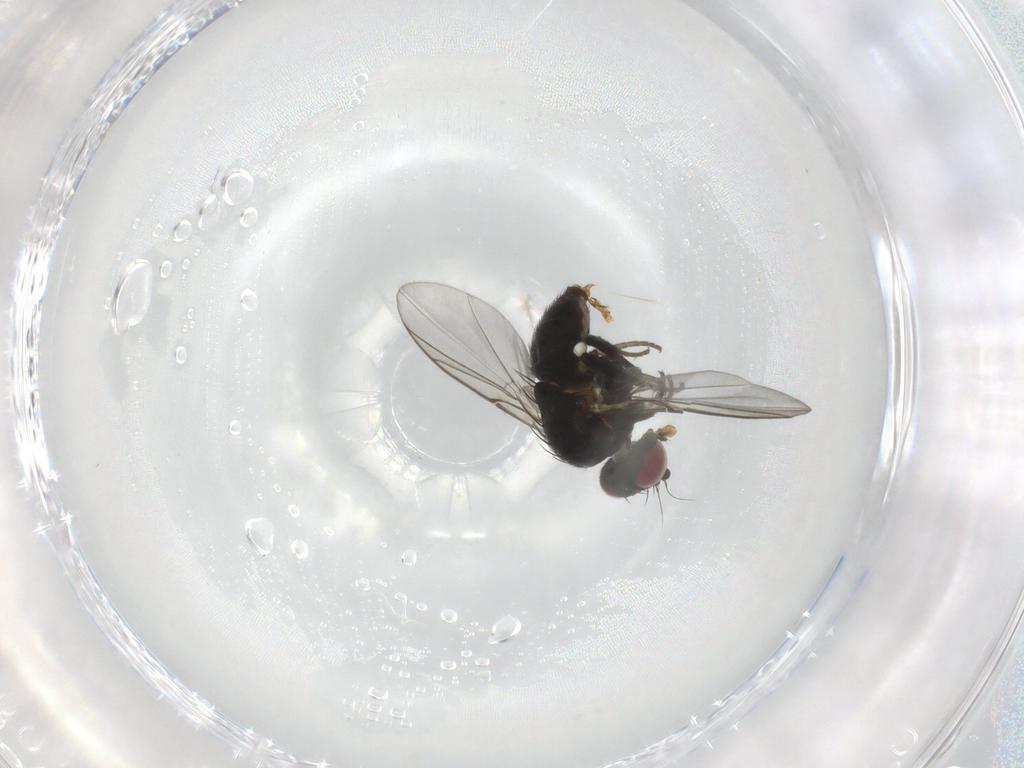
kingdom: Animalia
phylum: Arthropoda
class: Insecta
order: Diptera
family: Agromyzidae
